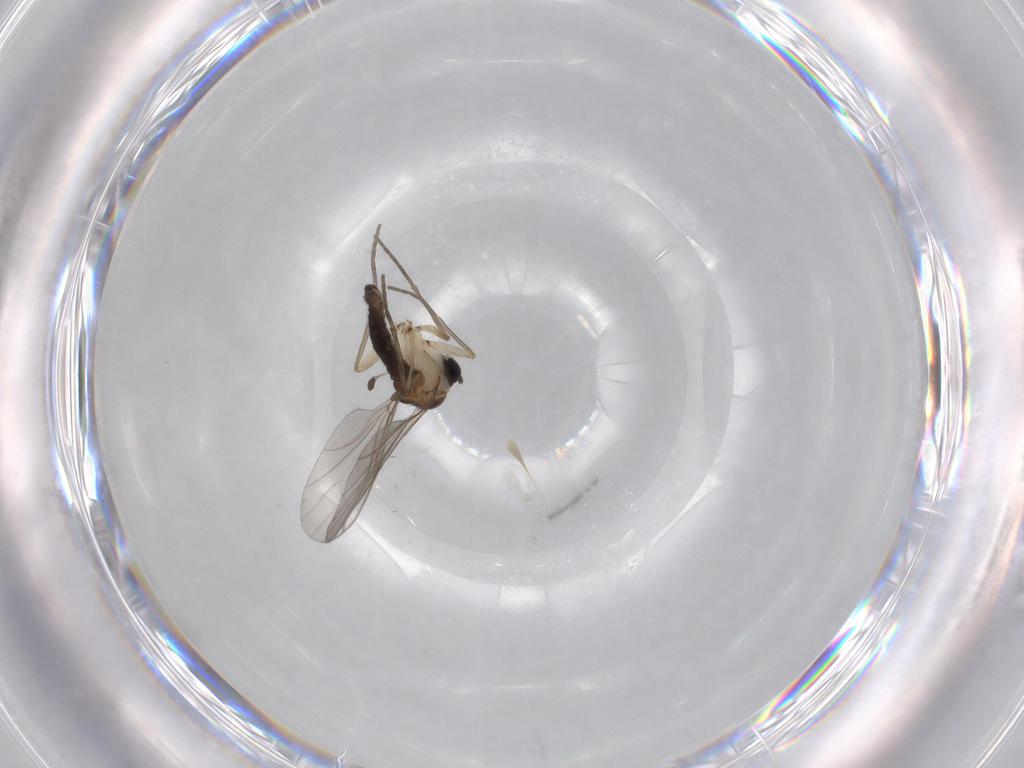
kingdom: Animalia
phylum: Arthropoda
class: Insecta
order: Diptera
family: Sciaridae
